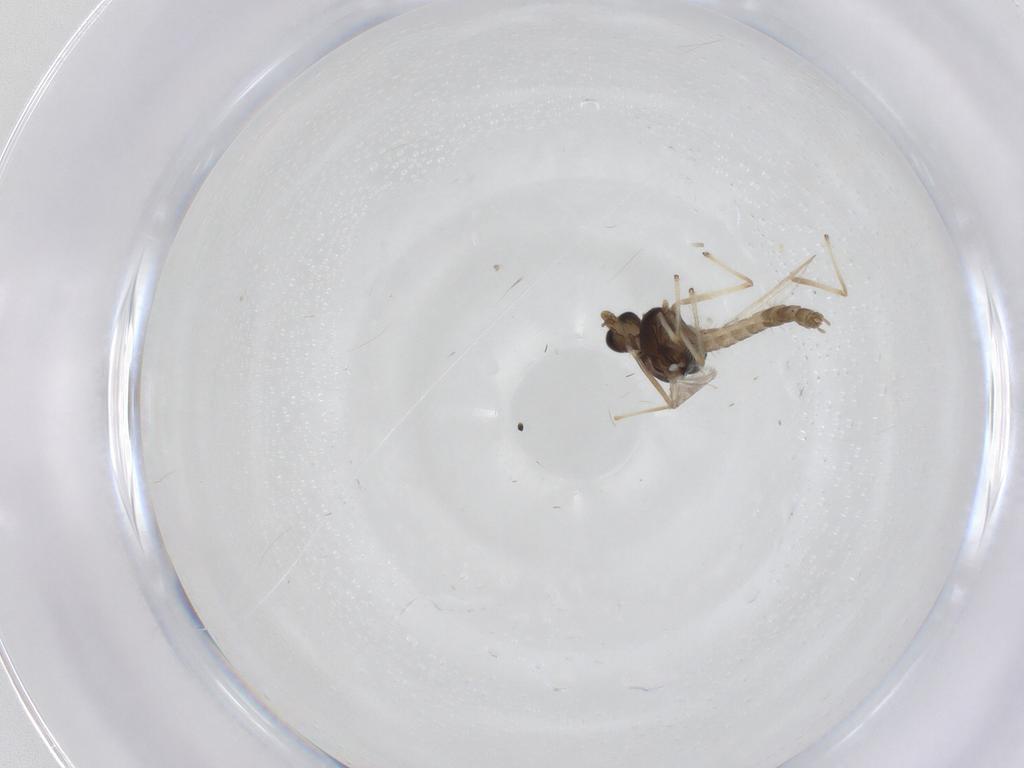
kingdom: Animalia
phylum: Arthropoda
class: Insecta
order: Diptera
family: Chironomidae
